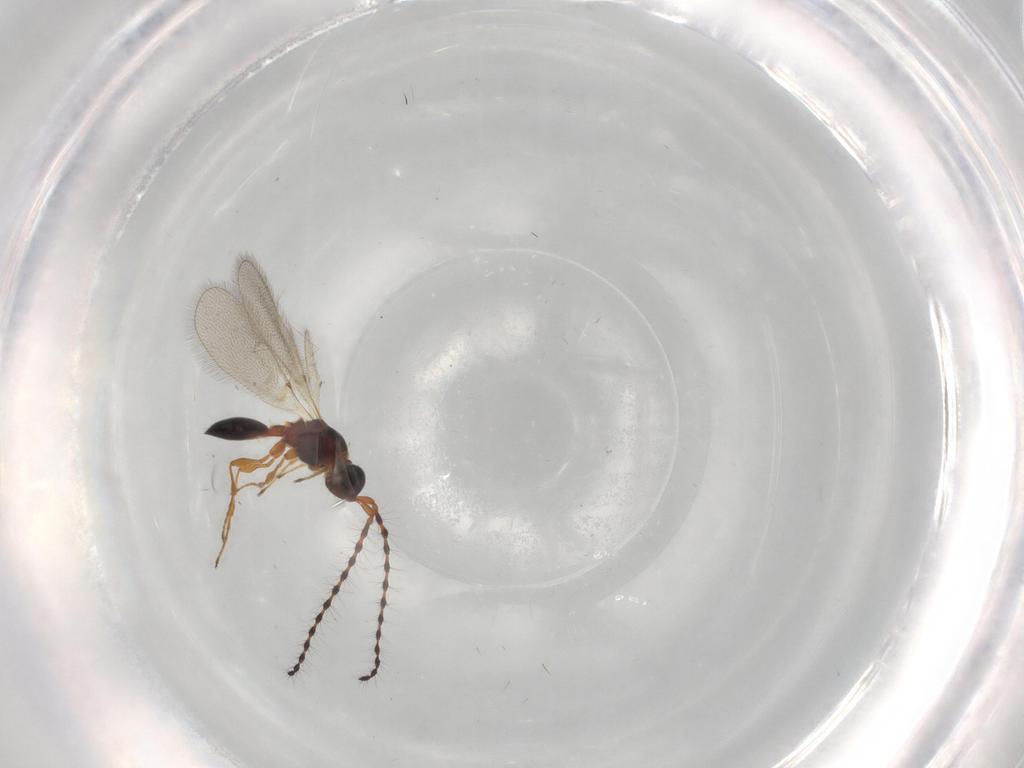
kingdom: Animalia
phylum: Arthropoda
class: Insecta
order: Hymenoptera
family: Diapriidae
